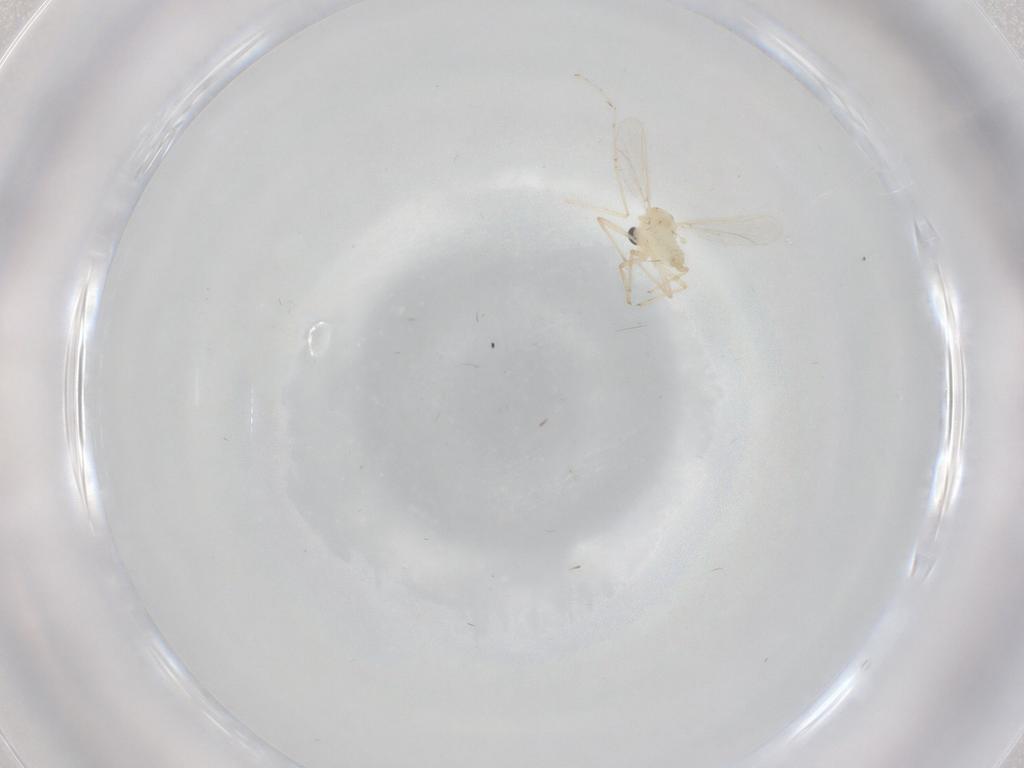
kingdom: Animalia
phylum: Arthropoda
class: Insecta
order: Diptera
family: Chironomidae
